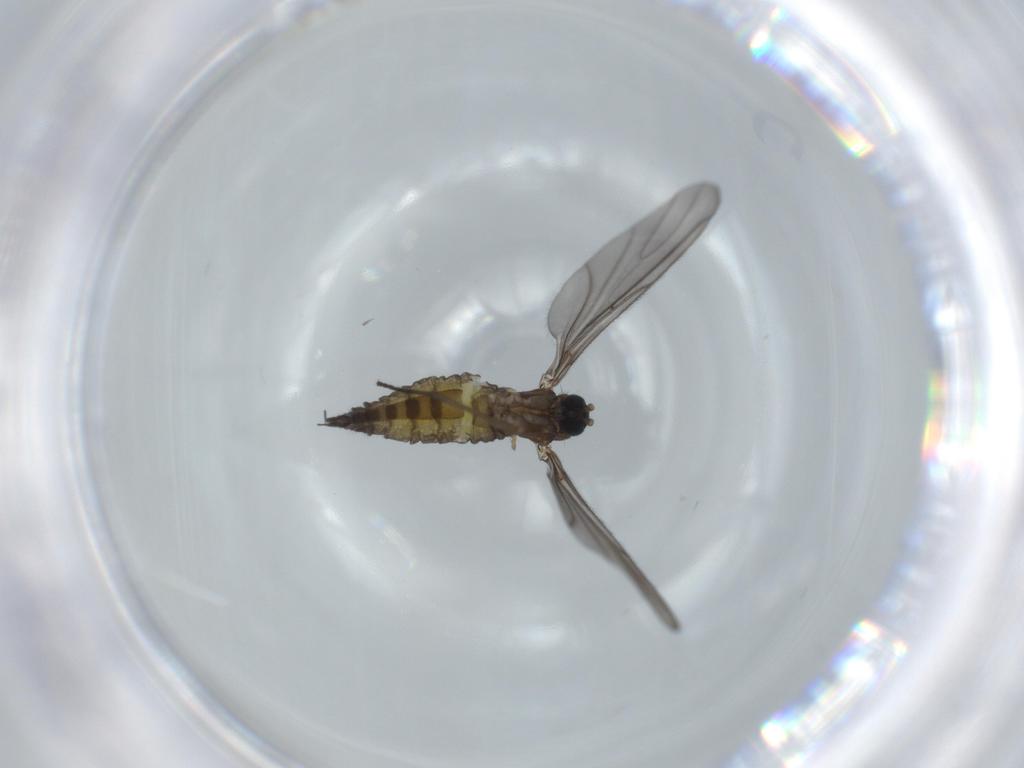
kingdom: Animalia
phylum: Arthropoda
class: Insecta
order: Diptera
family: Sciaridae
